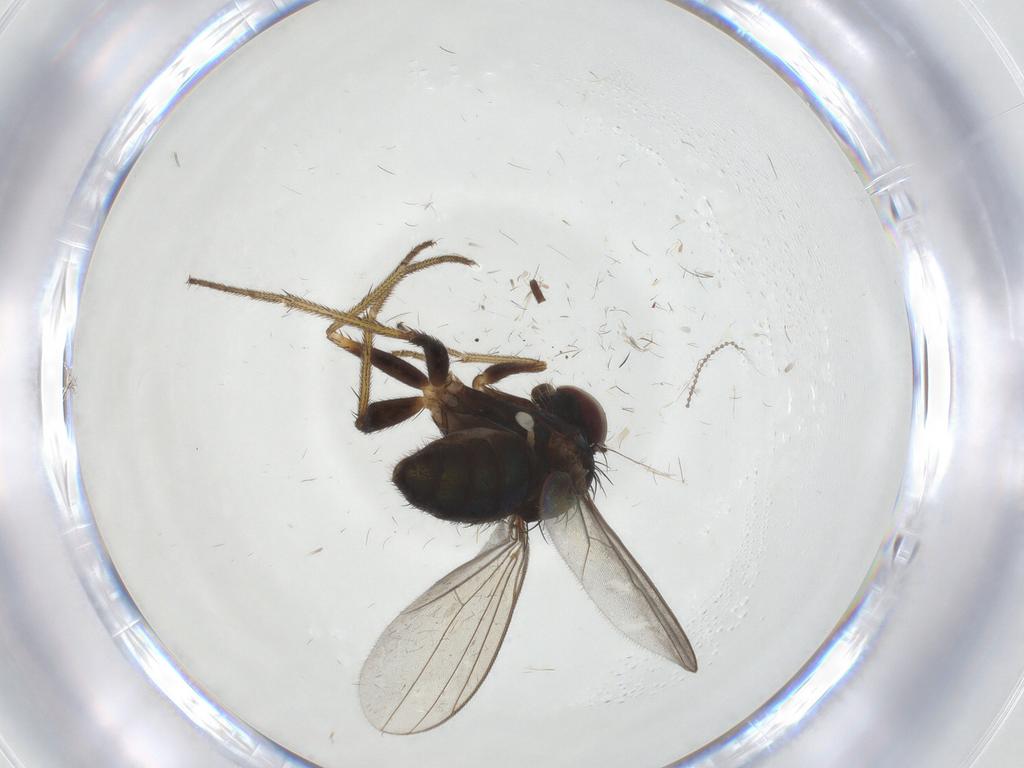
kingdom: Animalia
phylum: Arthropoda
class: Insecta
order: Diptera
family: Cecidomyiidae
